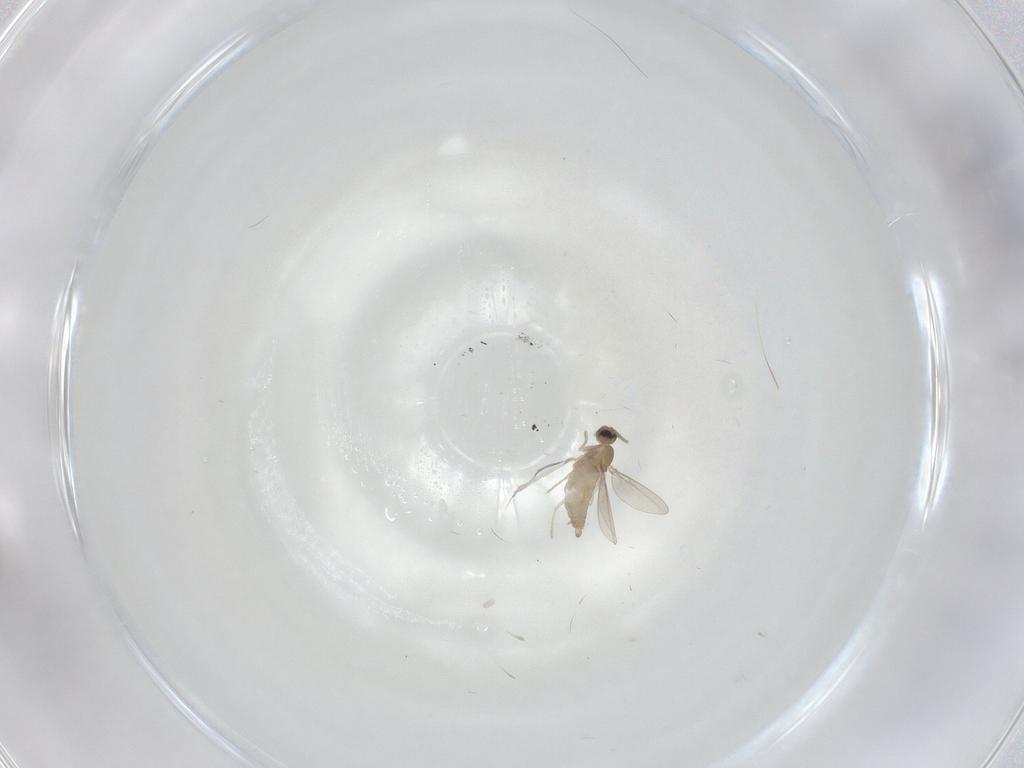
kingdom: Animalia
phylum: Arthropoda
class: Insecta
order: Diptera
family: Cecidomyiidae
